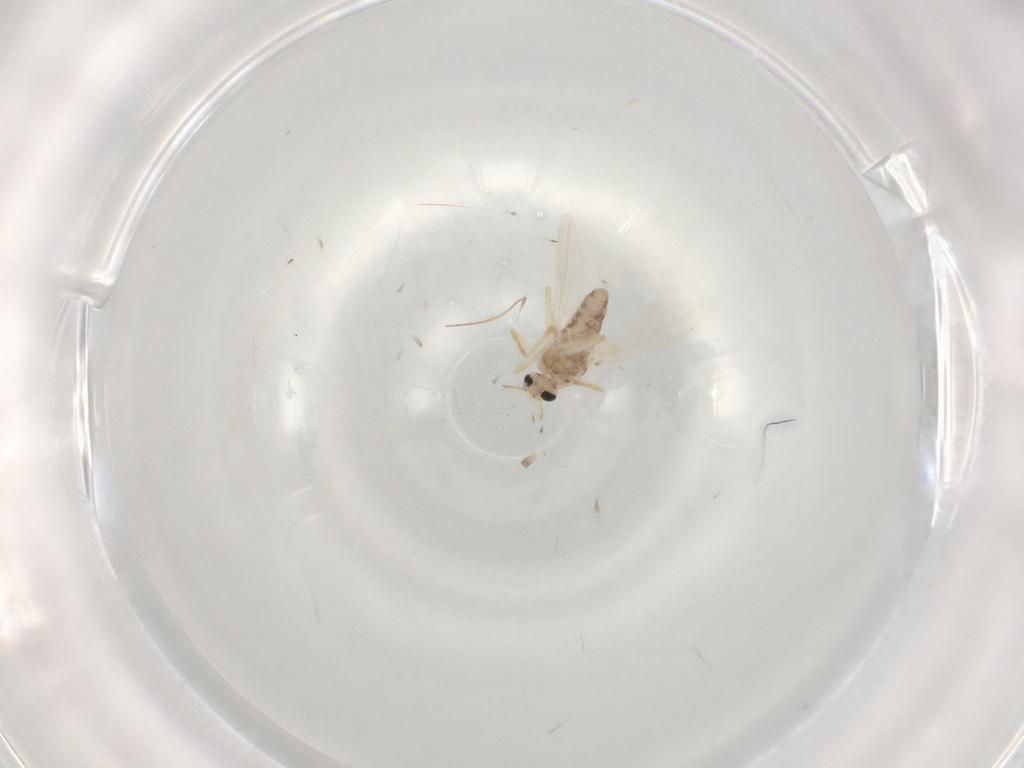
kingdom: Animalia
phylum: Arthropoda
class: Insecta
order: Diptera
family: Chironomidae
